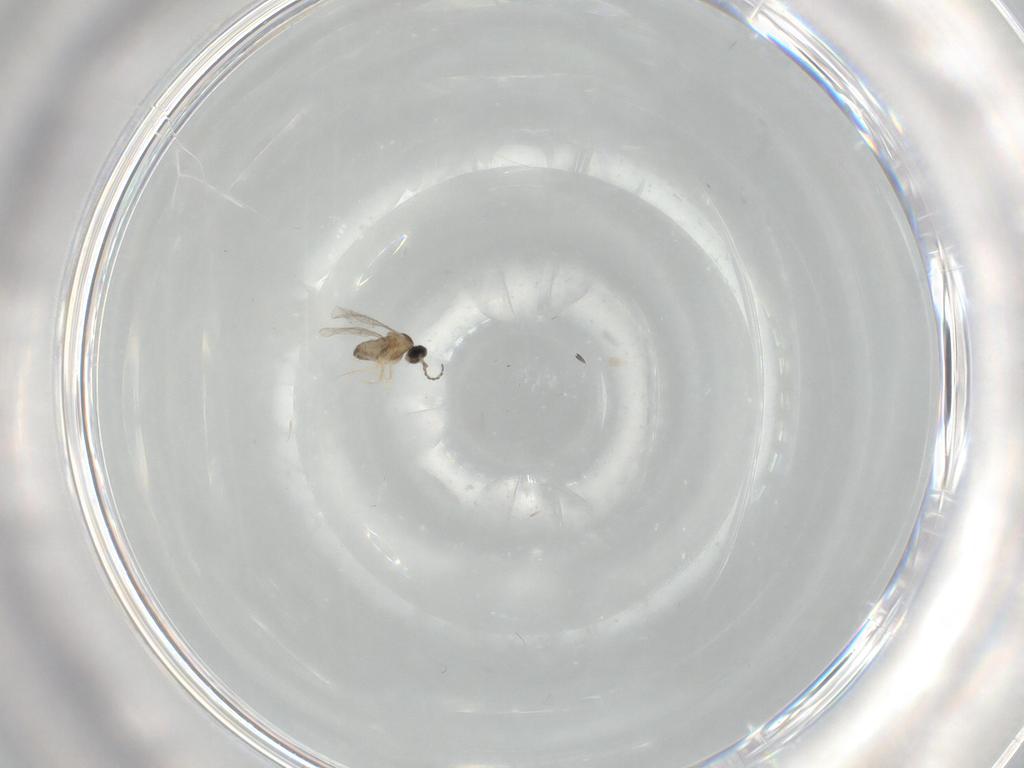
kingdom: Animalia
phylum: Arthropoda
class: Insecta
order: Diptera
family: Cecidomyiidae
